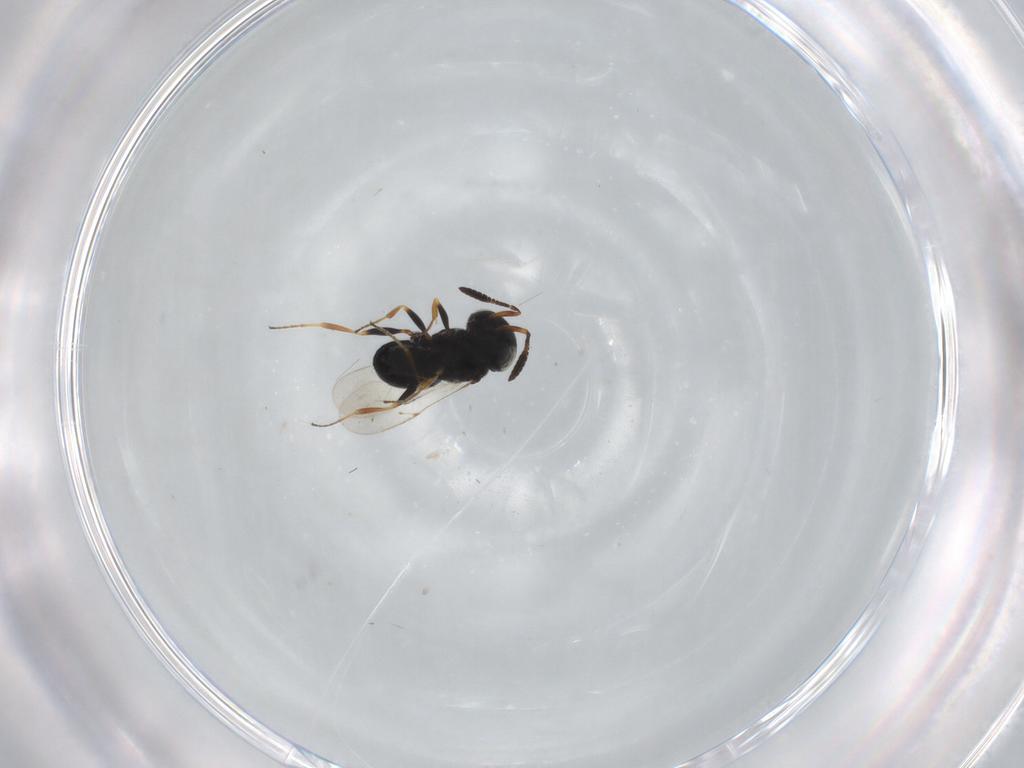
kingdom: Animalia
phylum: Arthropoda
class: Insecta
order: Coleoptera
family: Curculionidae
